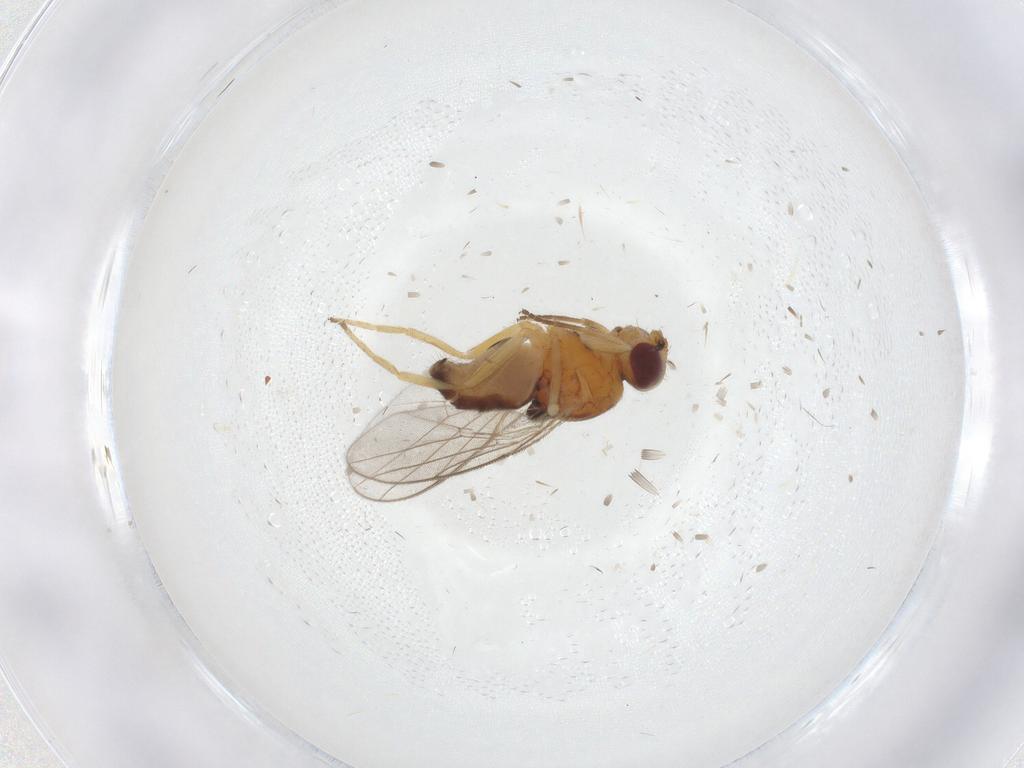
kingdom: Animalia
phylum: Arthropoda
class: Insecta
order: Diptera
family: Chloropidae
